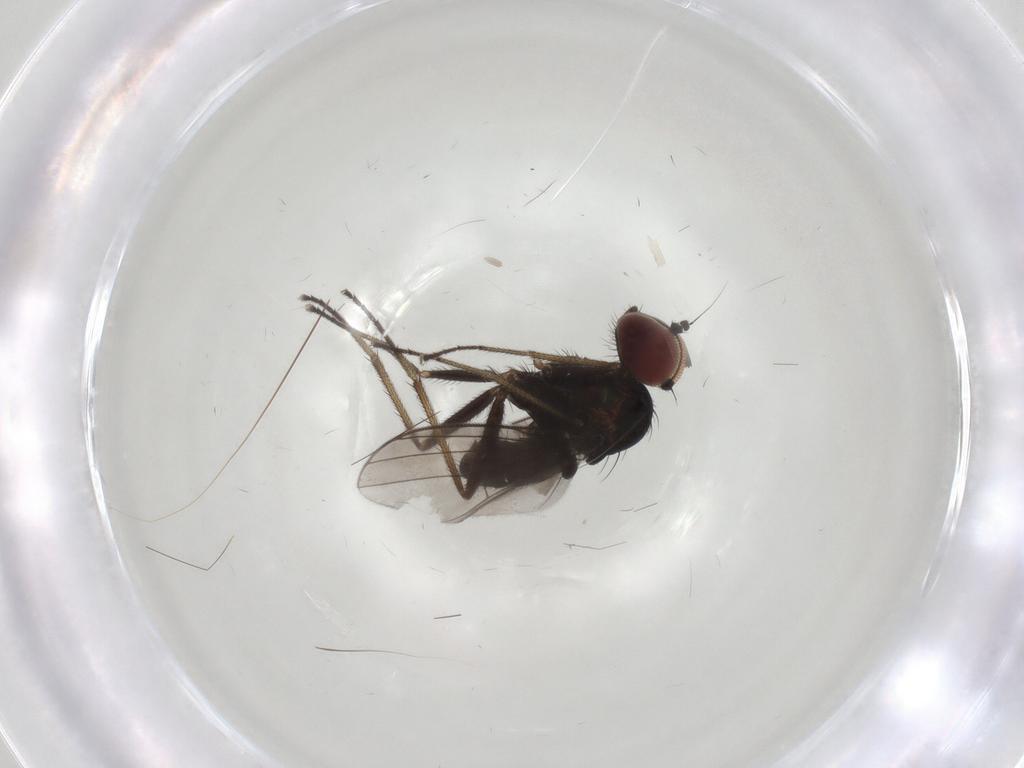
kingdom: Animalia
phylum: Arthropoda
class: Insecta
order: Diptera
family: Dolichopodidae
